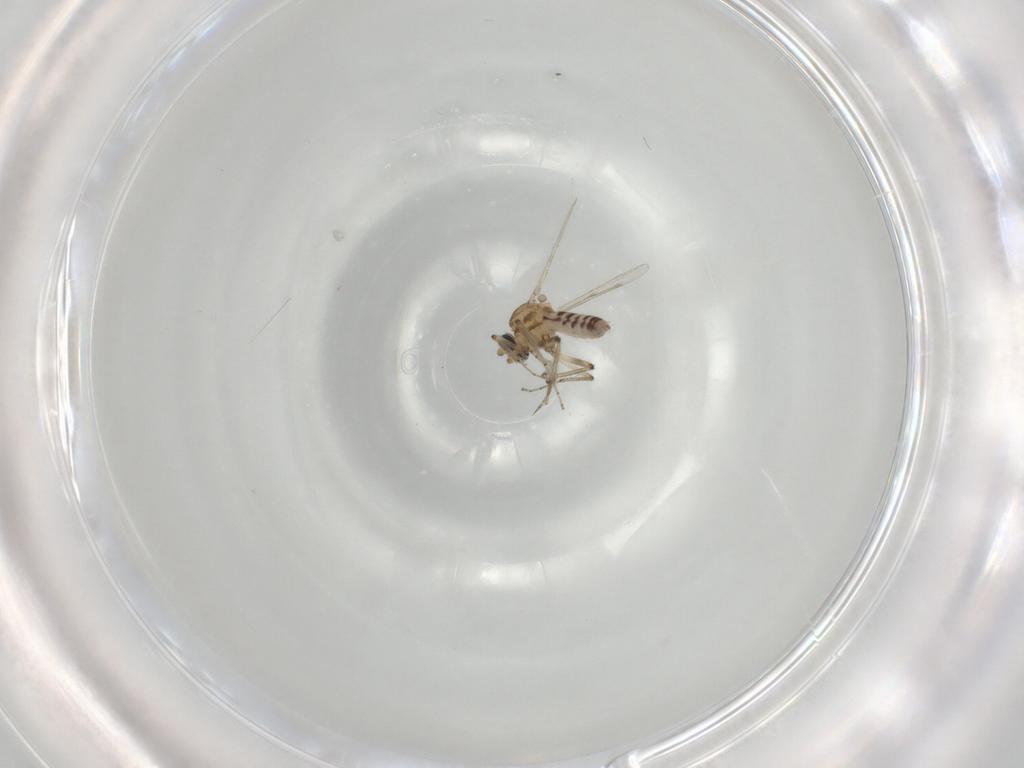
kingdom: Animalia
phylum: Arthropoda
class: Insecta
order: Diptera
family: Ceratopogonidae
